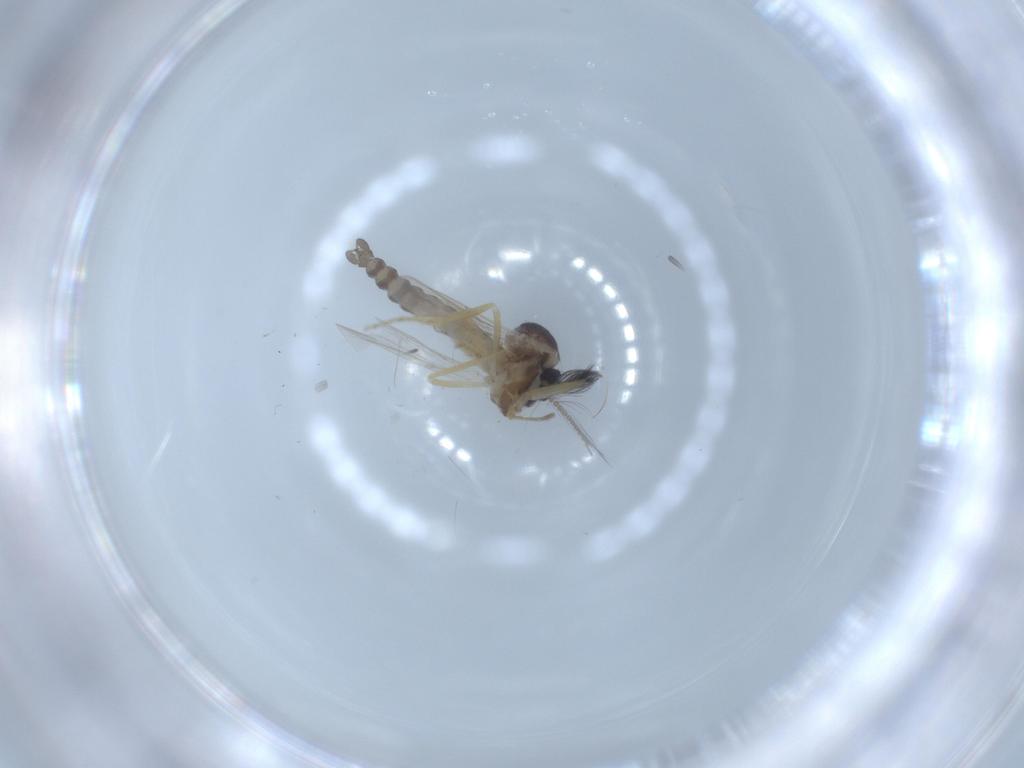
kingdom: Animalia
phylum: Arthropoda
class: Insecta
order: Diptera
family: Ceratopogonidae
